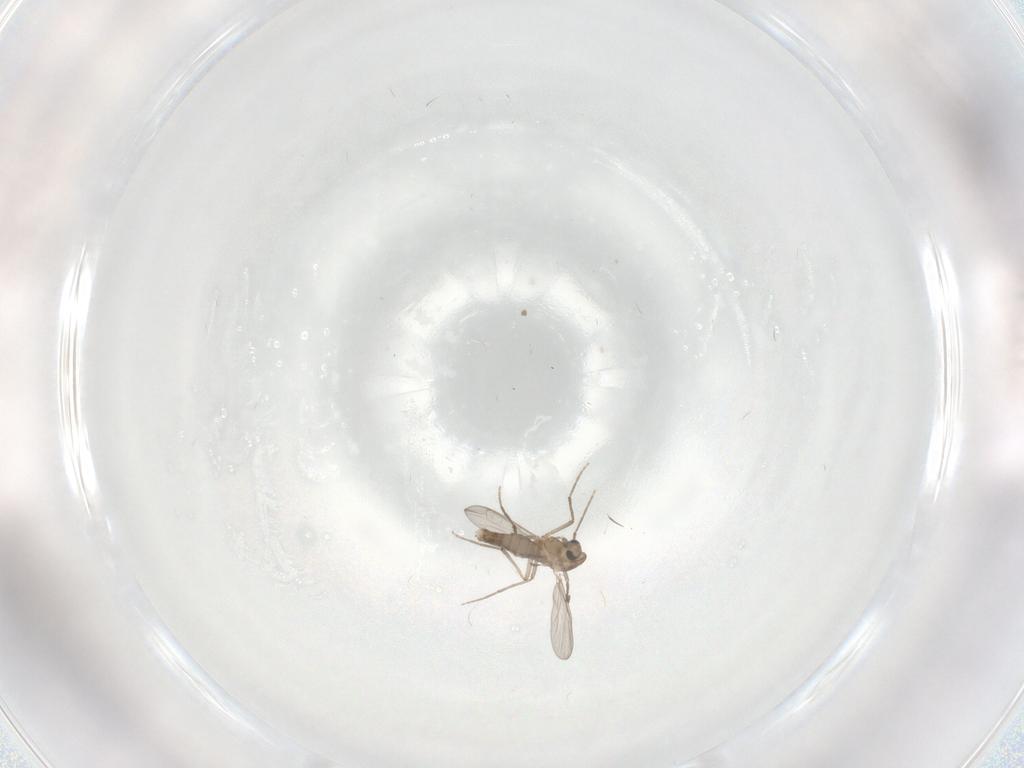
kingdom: Animalia
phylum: Arthropoda
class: Insecta
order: Diptera
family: Chironomidae
